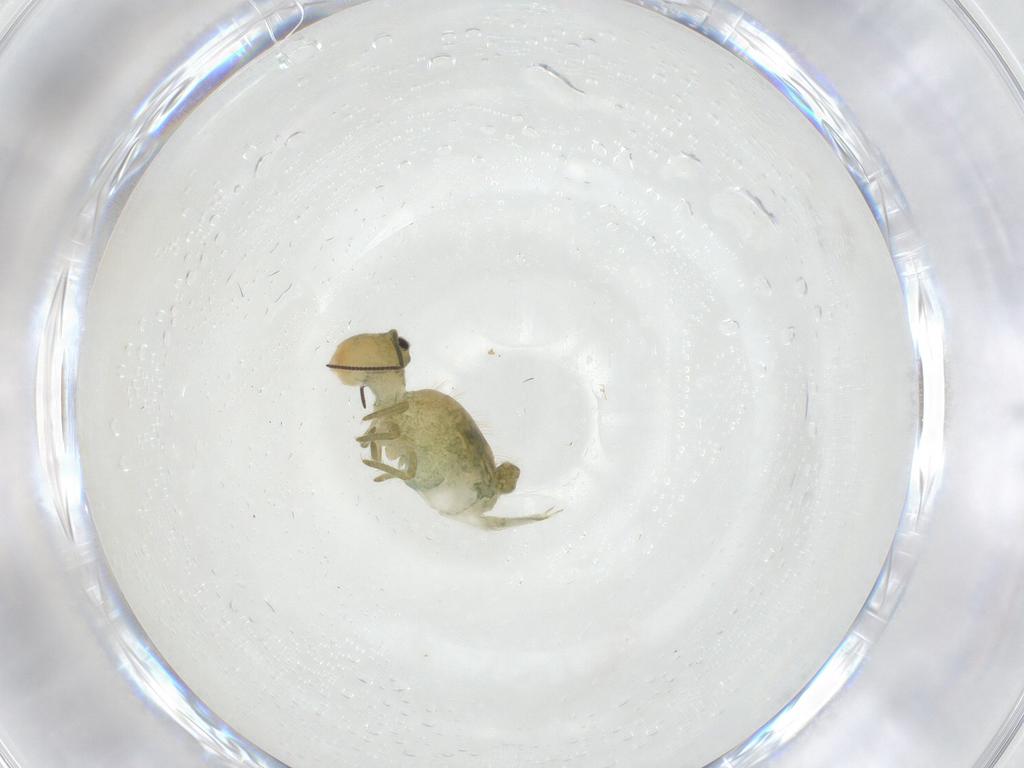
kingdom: Animalia
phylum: Arthropoda
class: Collembola
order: Symphypleona
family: Sminthuridae
